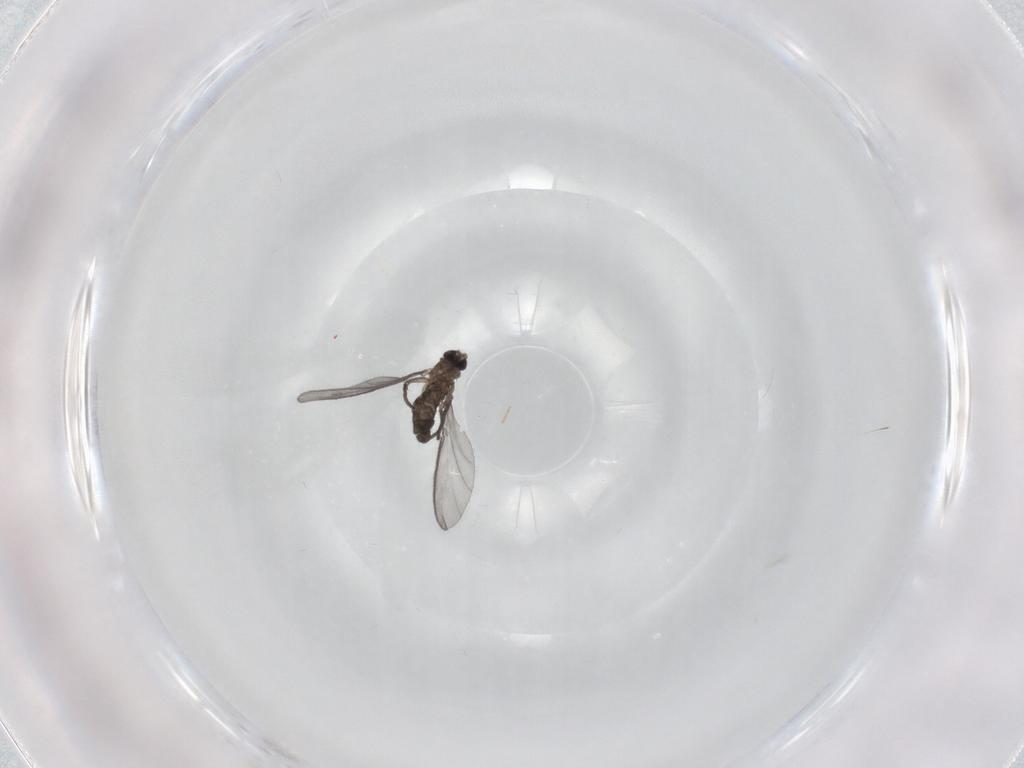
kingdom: Animalia
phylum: Arthropoda
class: Insecta
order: Diptera
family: Sciaridae
